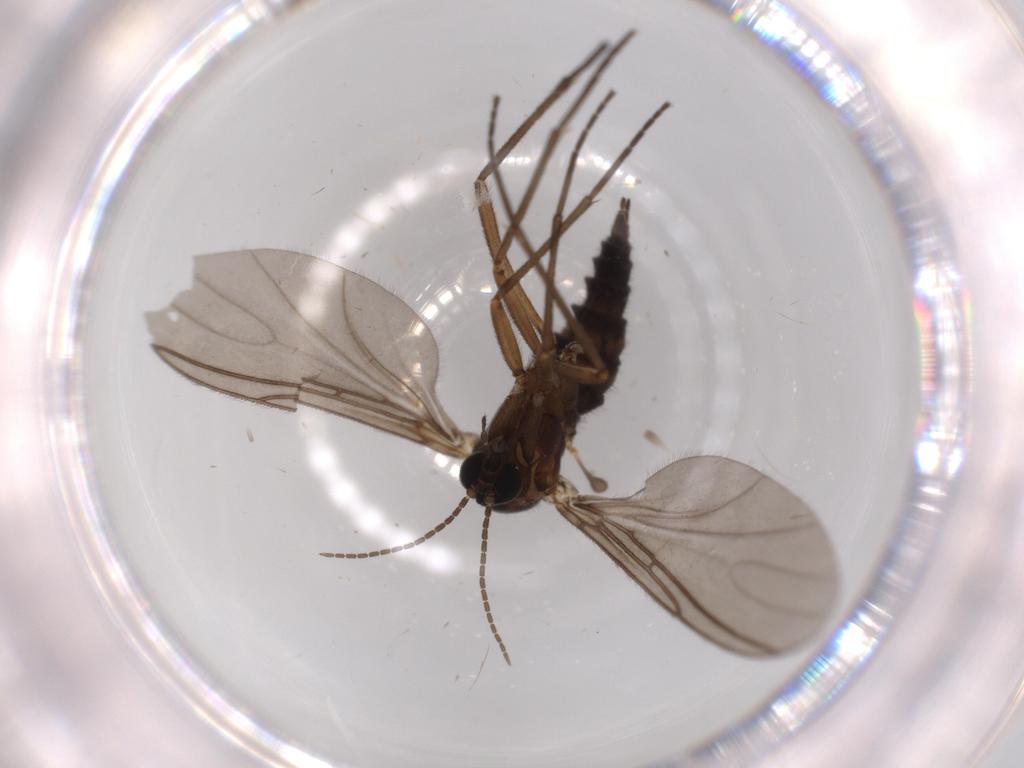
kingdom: Animalia
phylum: Arthropoda
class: Insecta
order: Diptera
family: Sciaridae
